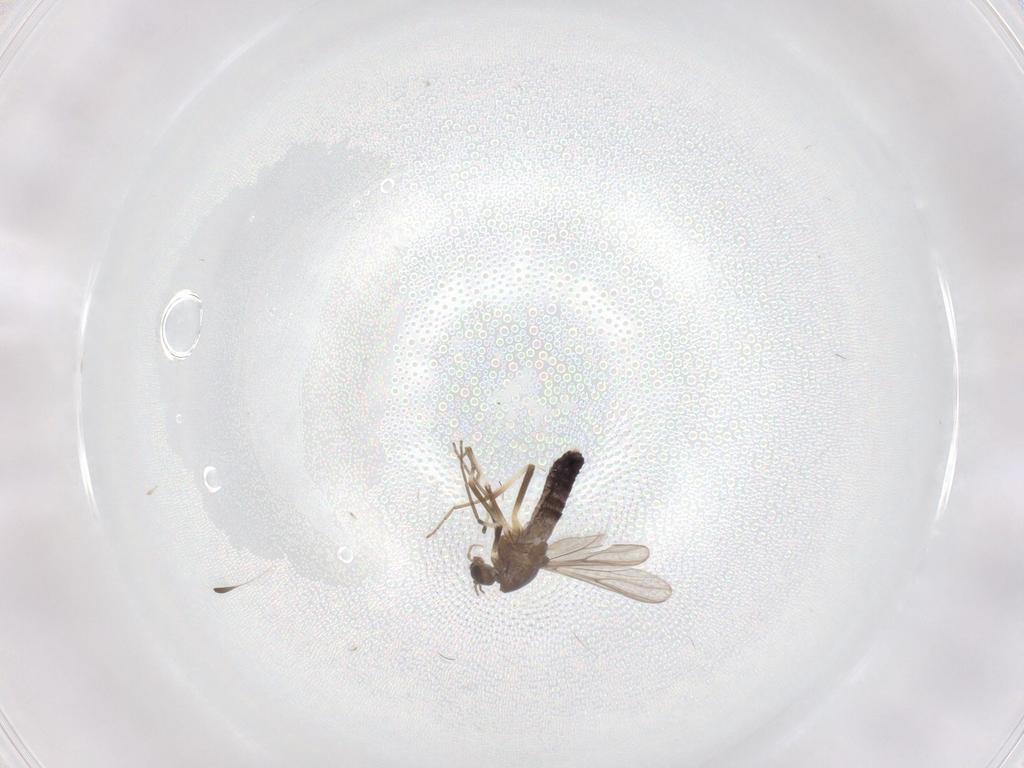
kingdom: Animalia
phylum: Arthropoda
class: Insecta
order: Diptera
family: Chironomidae
